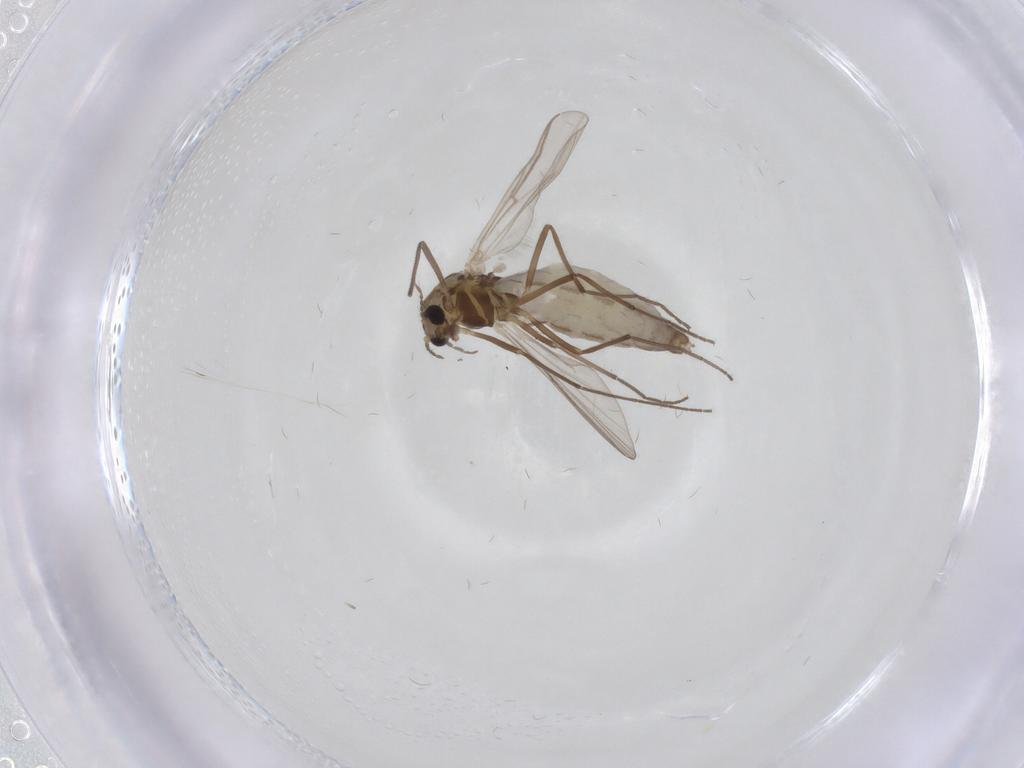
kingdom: Animalia
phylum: Arthropoda
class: Insecta
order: Diptera
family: Chironomidae
